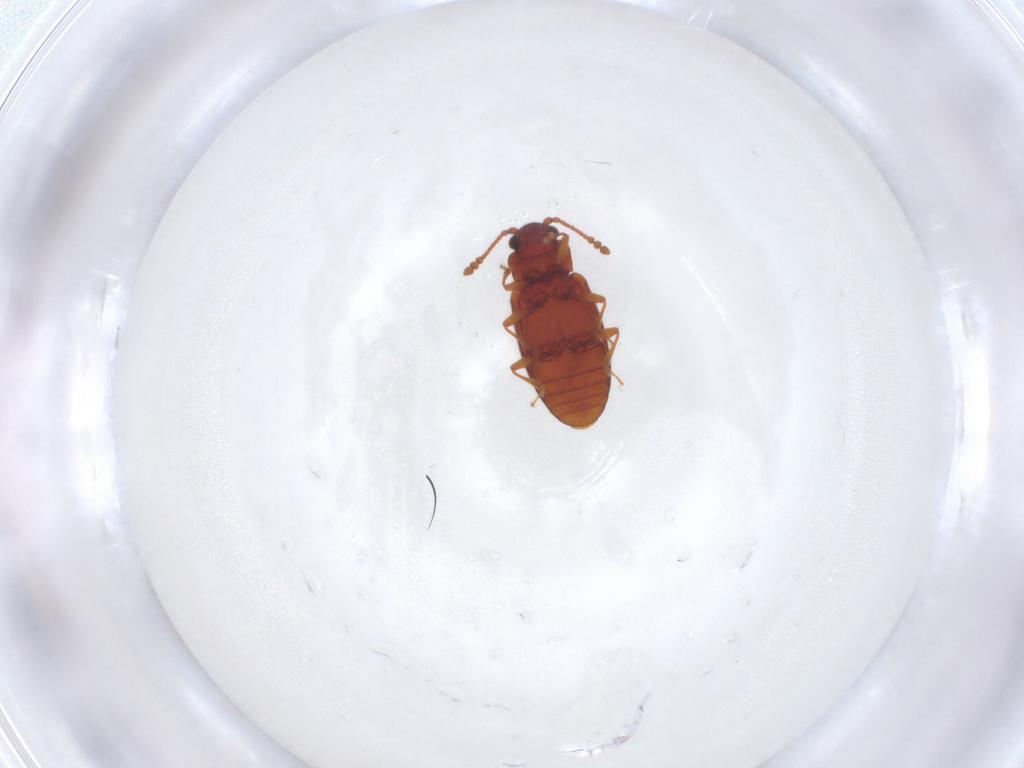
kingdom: Animalia
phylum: Arthropoda
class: Insecta
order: Coleoptera
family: Cryptophagidae
